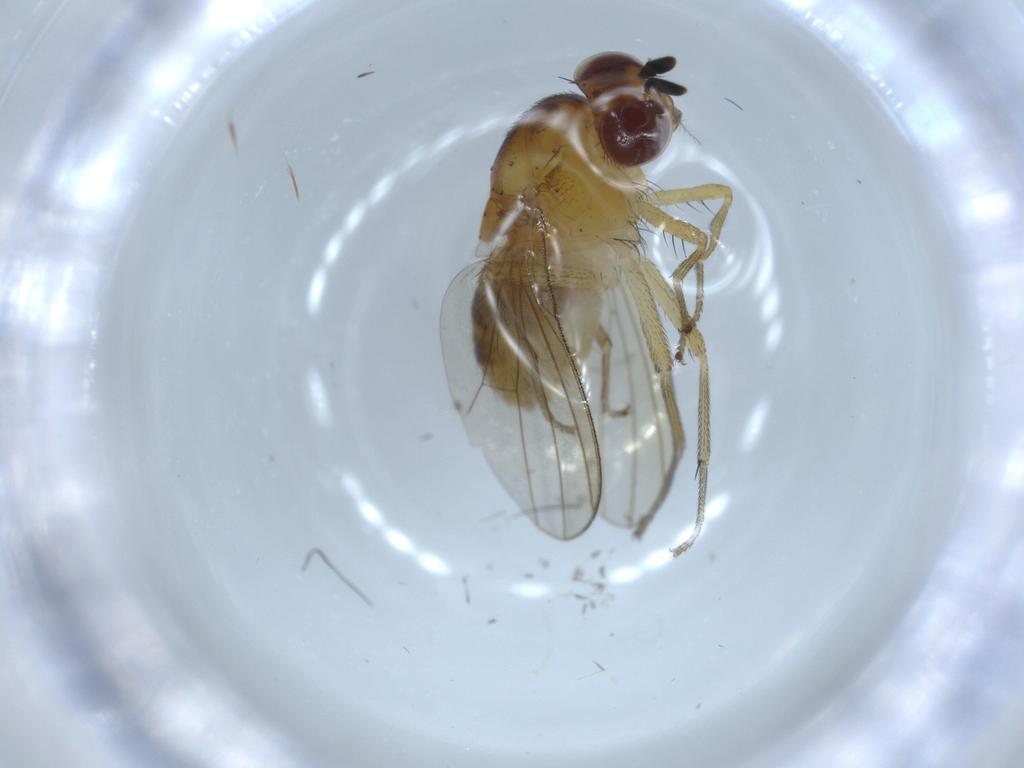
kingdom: Animalia
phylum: Arthropoda
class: Insecta
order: Diptera
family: Lauxaniidae
